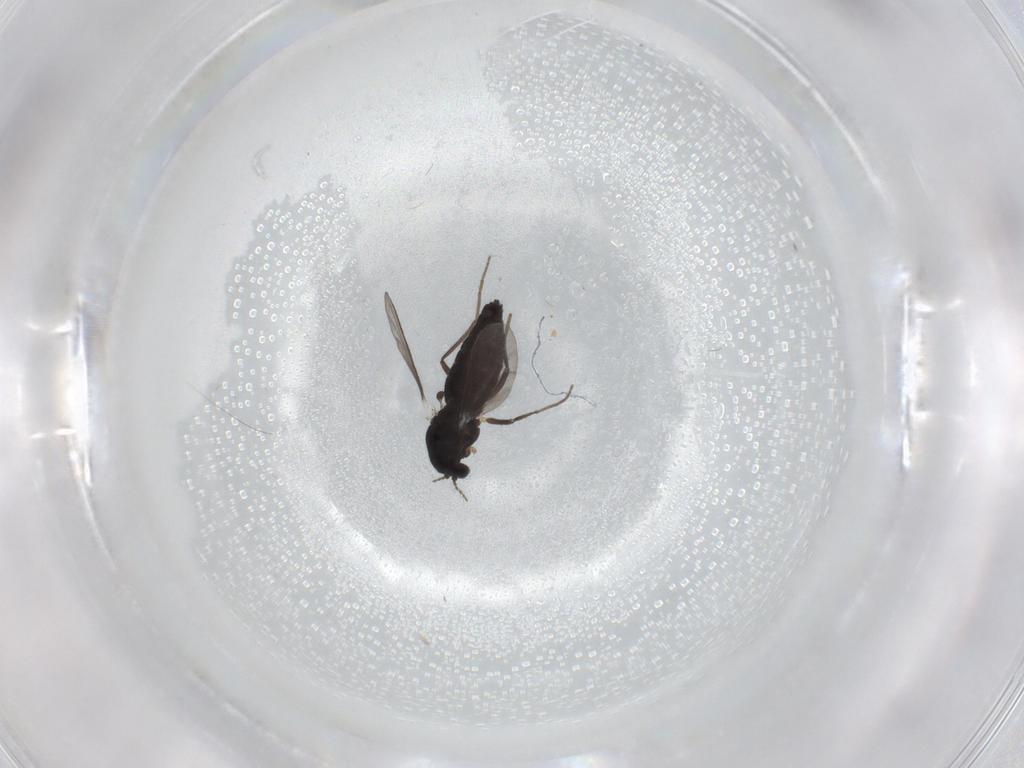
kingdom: Animalia
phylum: Arthropoda
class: Insecta
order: Diptera
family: Chironomidae
